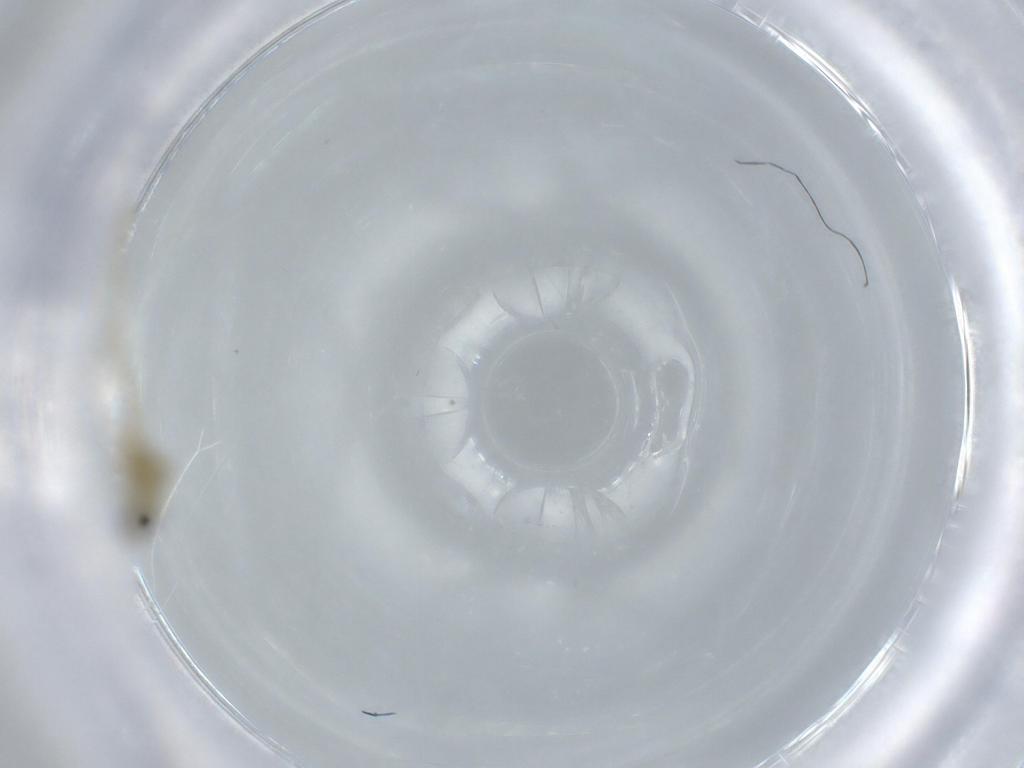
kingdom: Animalia
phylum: Arthropoda
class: Insecta
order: Diptera
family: Chironomidae
